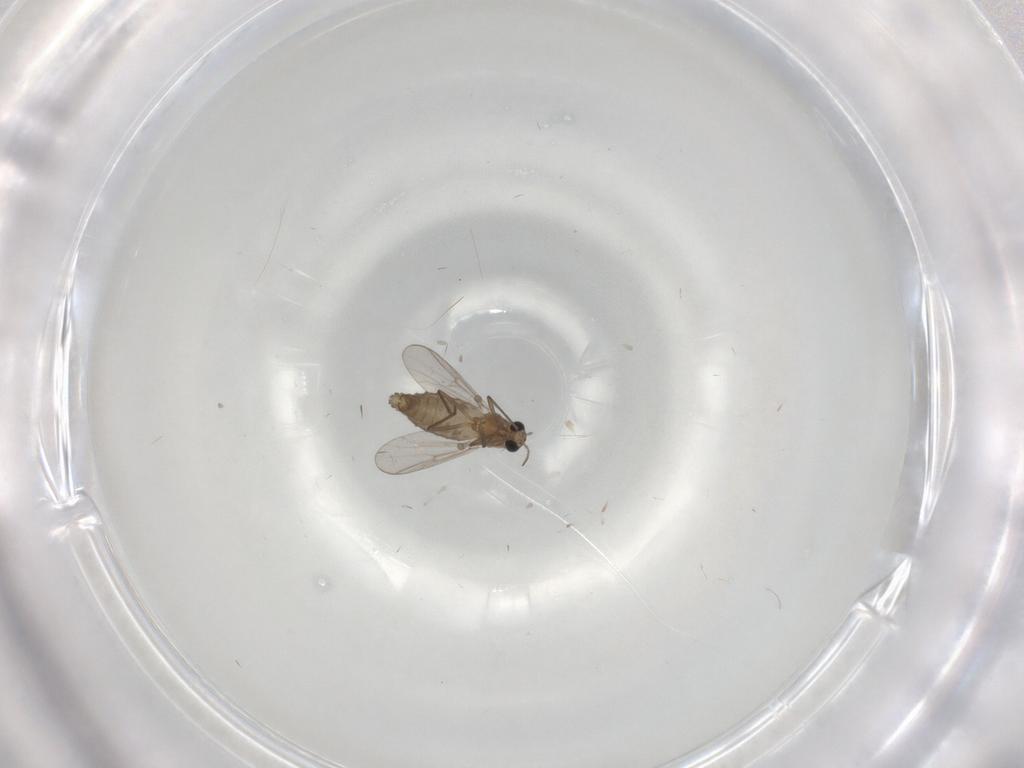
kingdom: Animalia
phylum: Arthropoda
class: Insecta
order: Diptera
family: Chironomidae
